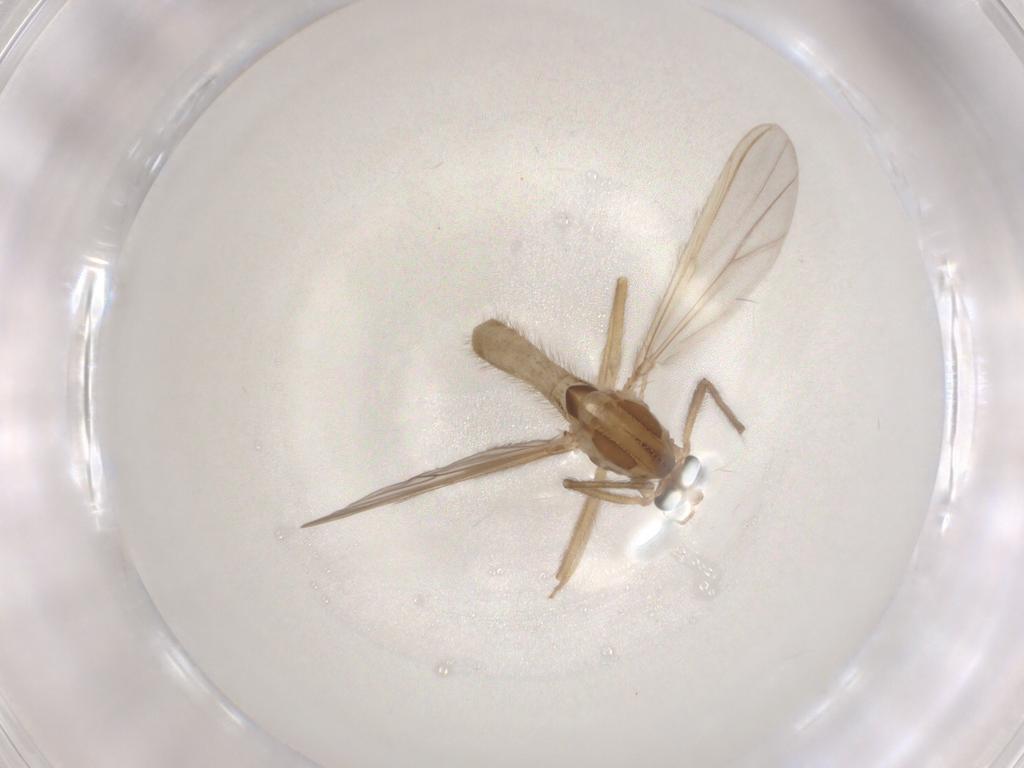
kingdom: Animalia
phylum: Arthropoda
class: Insecta
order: Diptera
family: Chironomidae
